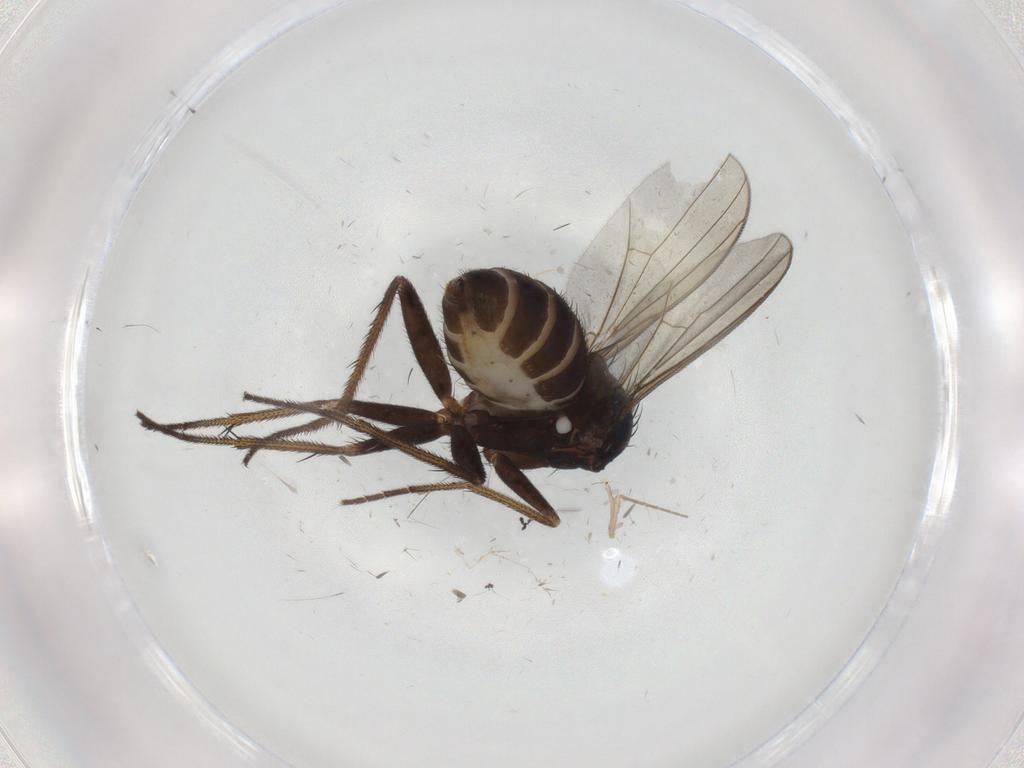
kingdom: Animalia
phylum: Arthropoda
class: Insecta
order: Diptera
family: Dolichopodidae
